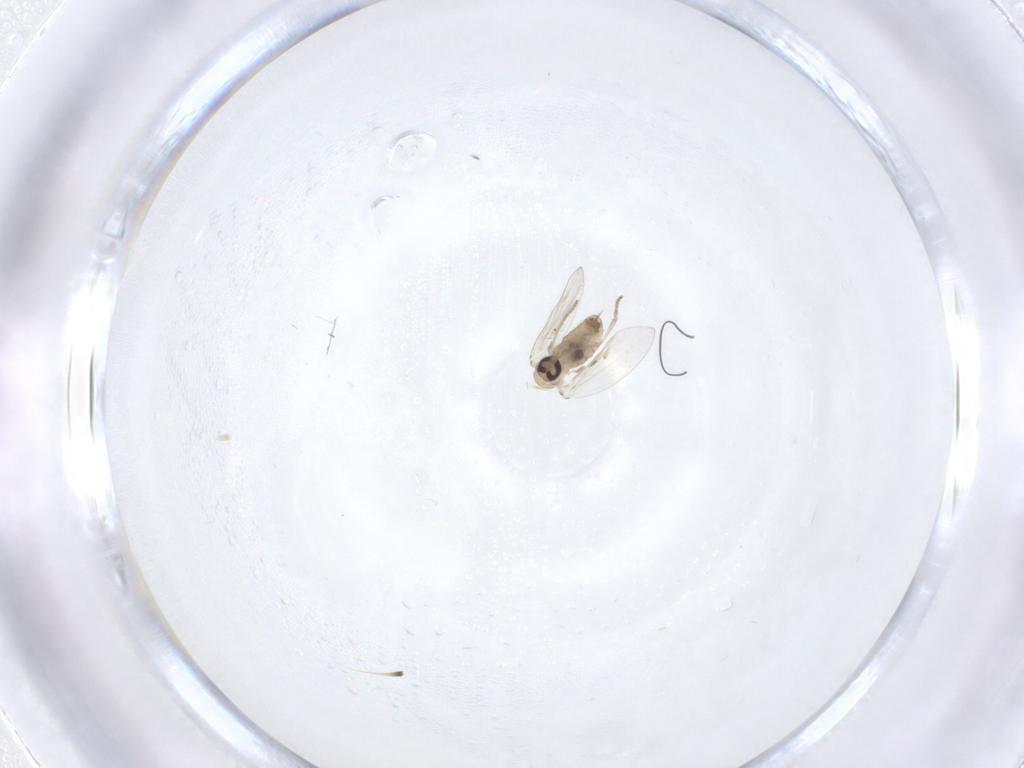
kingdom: Animalia
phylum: Arthropoda
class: Insecta
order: Diptera
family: Psychodidae
